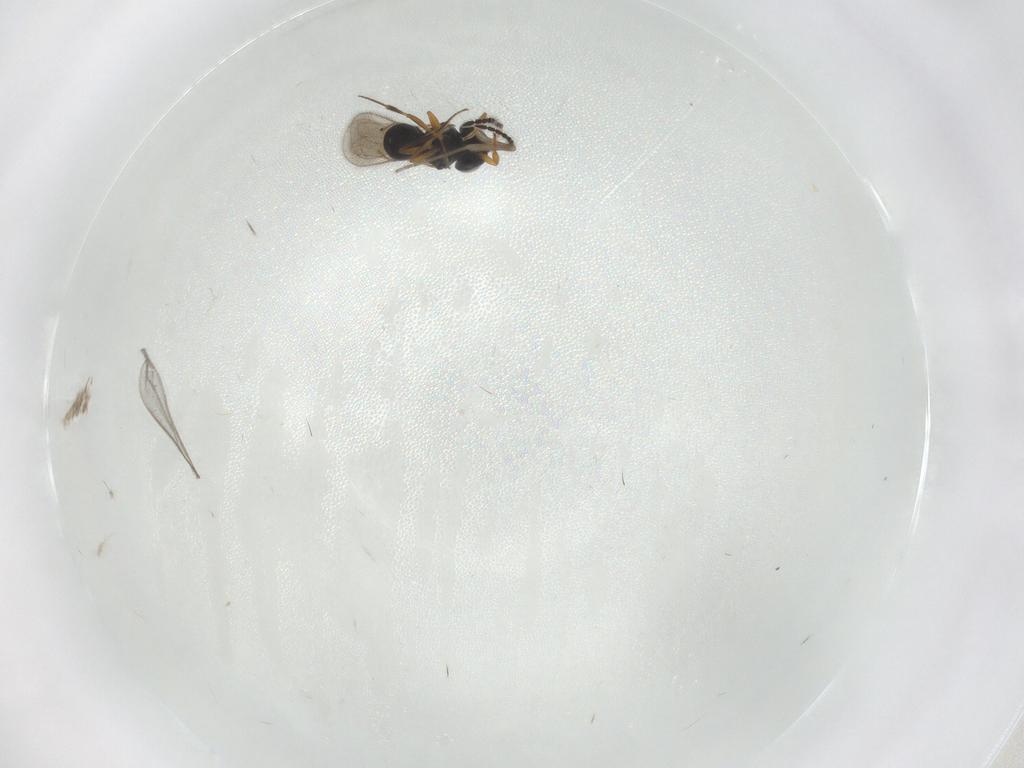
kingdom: Animalia
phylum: Arthropoda
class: Insecta
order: Hymenoptera
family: Scelionidae
